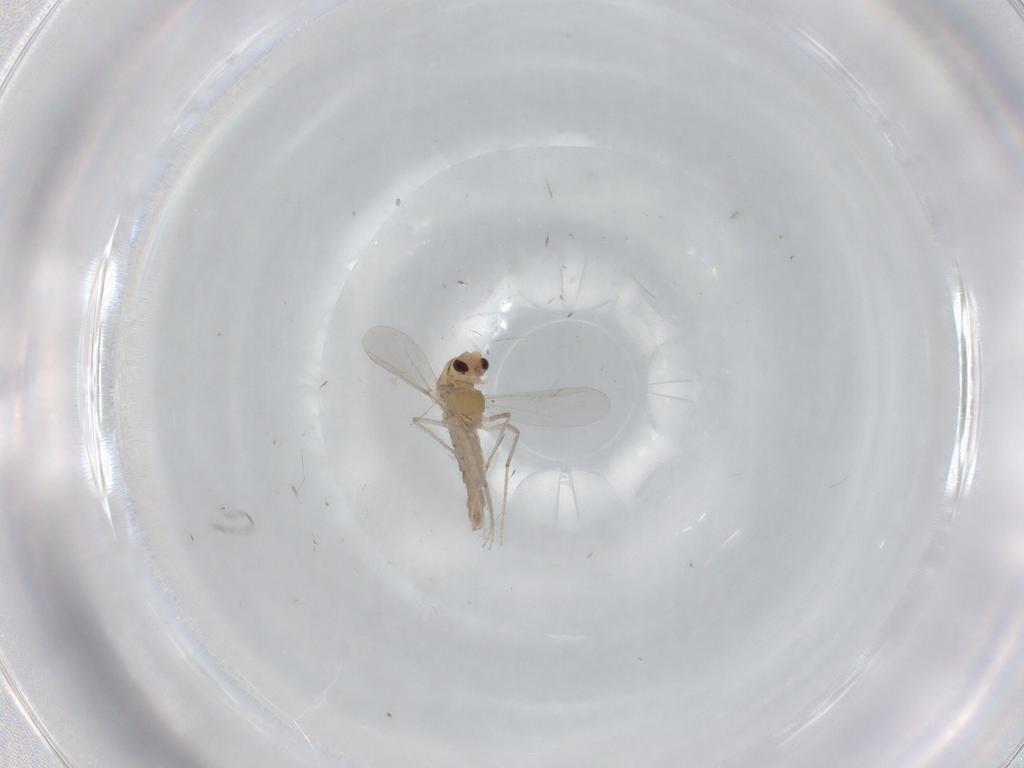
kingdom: Animalia
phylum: Arthropoda
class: Insecta
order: Diptera
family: Chironomidae
